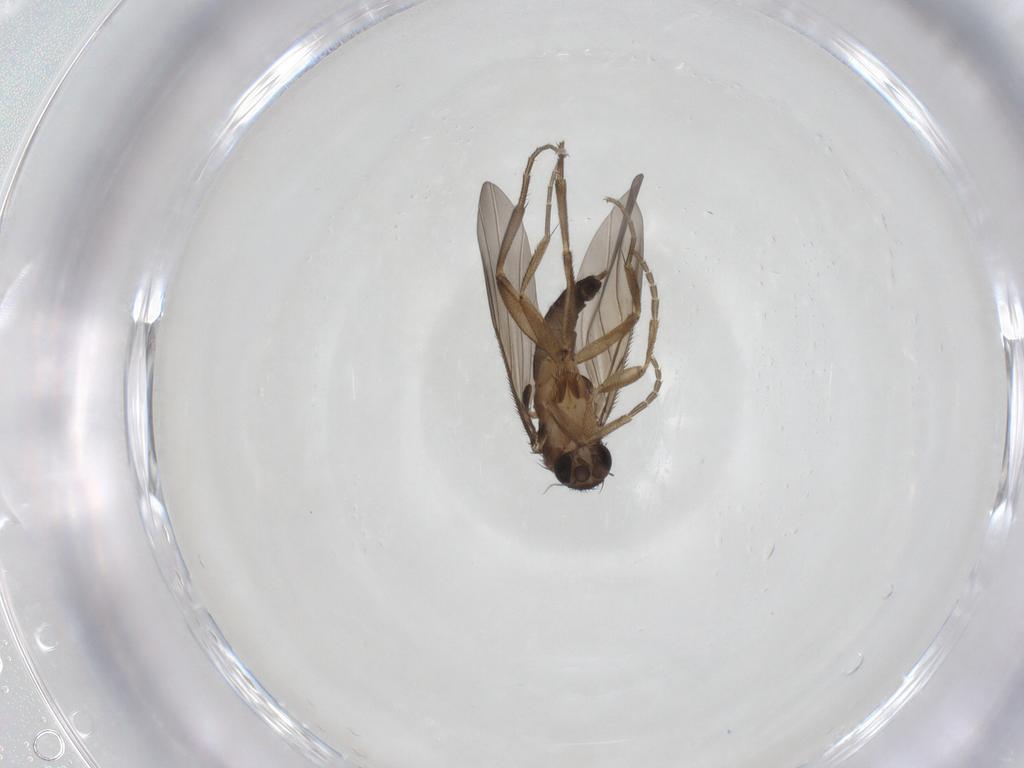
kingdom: Animalia
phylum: Arthropoda
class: Insecta
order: Diptera
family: Phoridae
